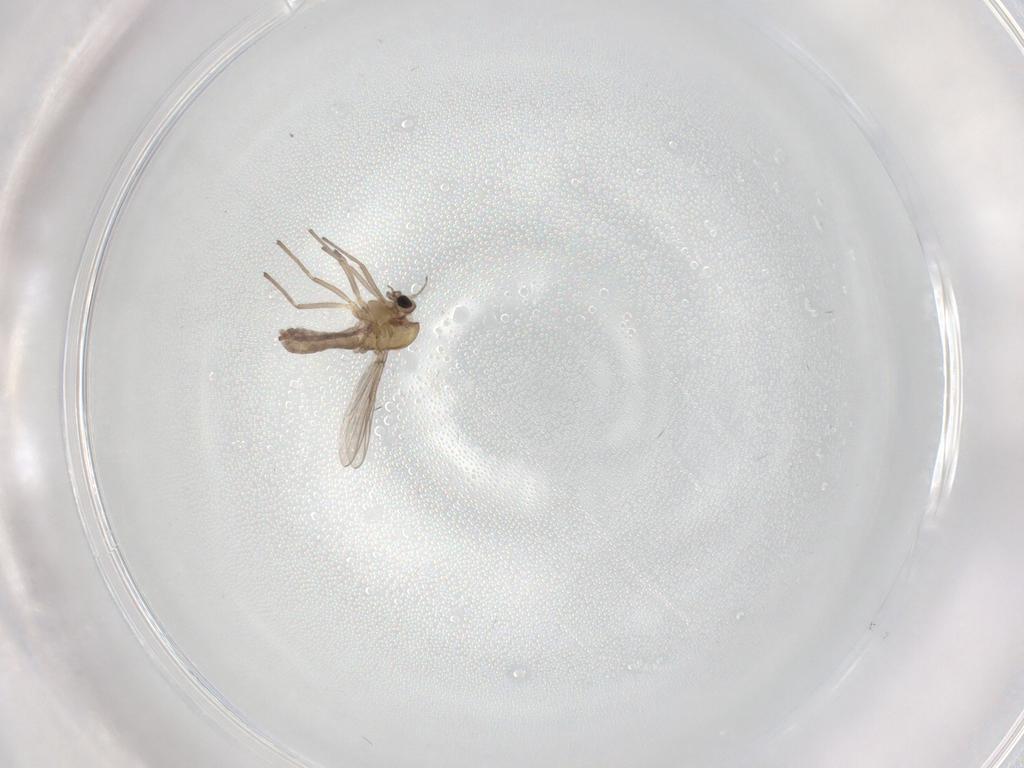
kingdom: Animalia
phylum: Arthropoda
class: Insecta
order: Diptera
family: Chironomidae
